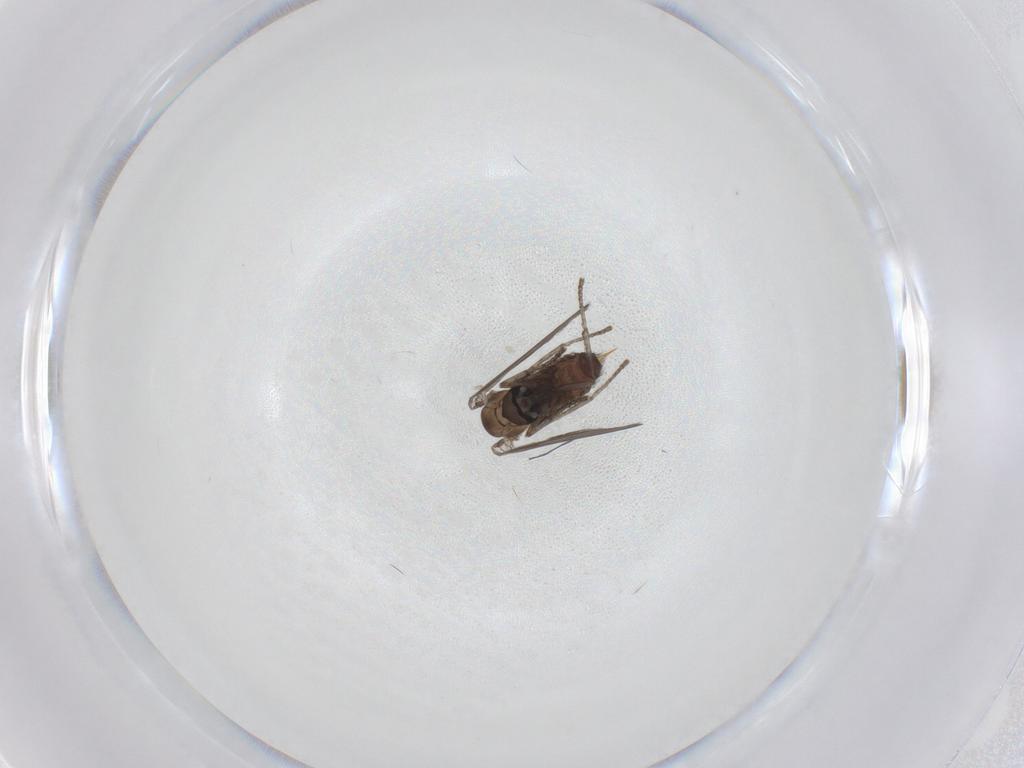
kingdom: Animalia
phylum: Arthropoda
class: Insecta
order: Diptera
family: Psychodidae
